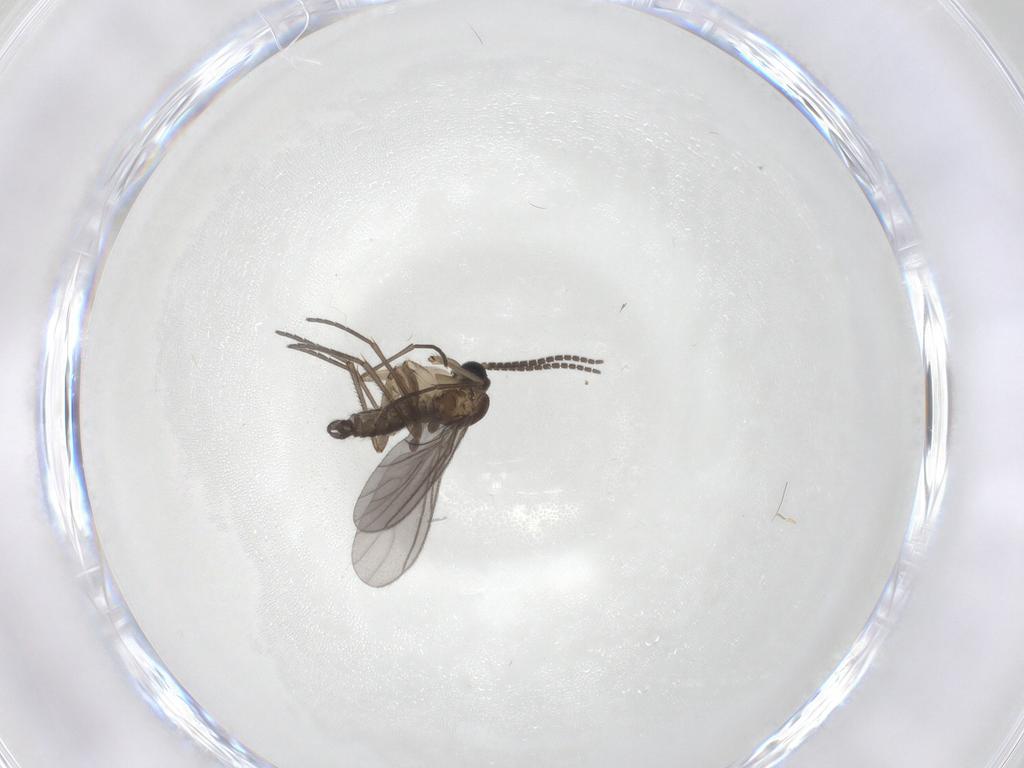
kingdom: Animalia
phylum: Arthropoda
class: Insecta
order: Diptera
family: Sciaridae
